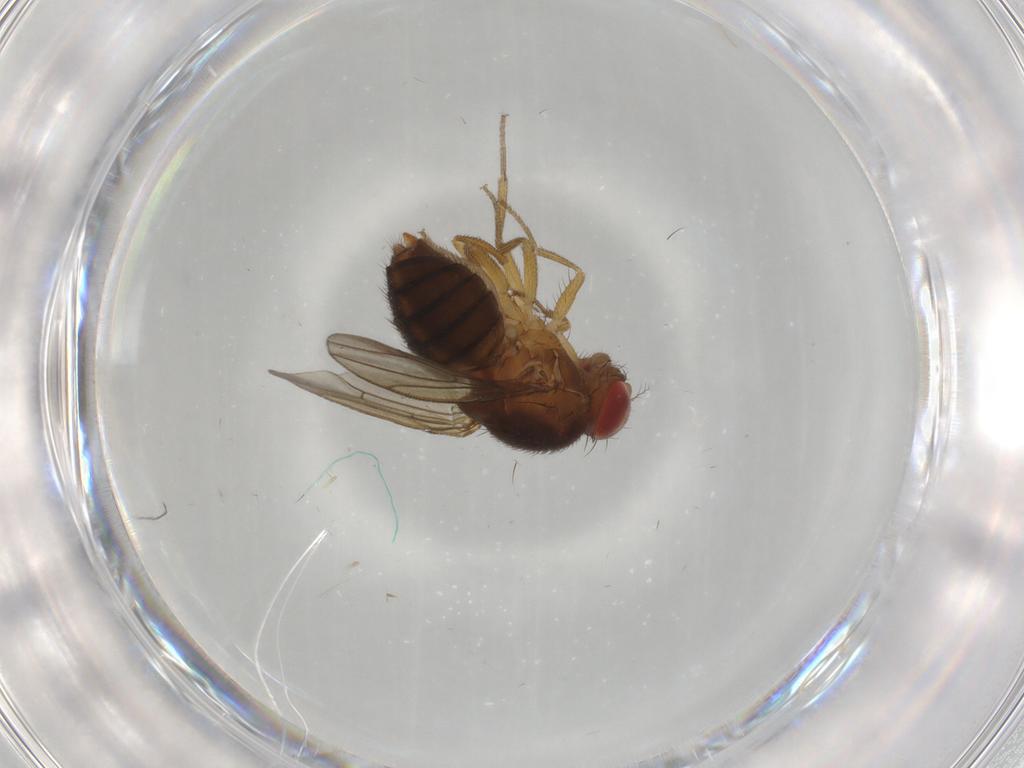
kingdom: Animalia
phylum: Arthropoda
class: Insecta
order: Diptera
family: Drosophilidae
